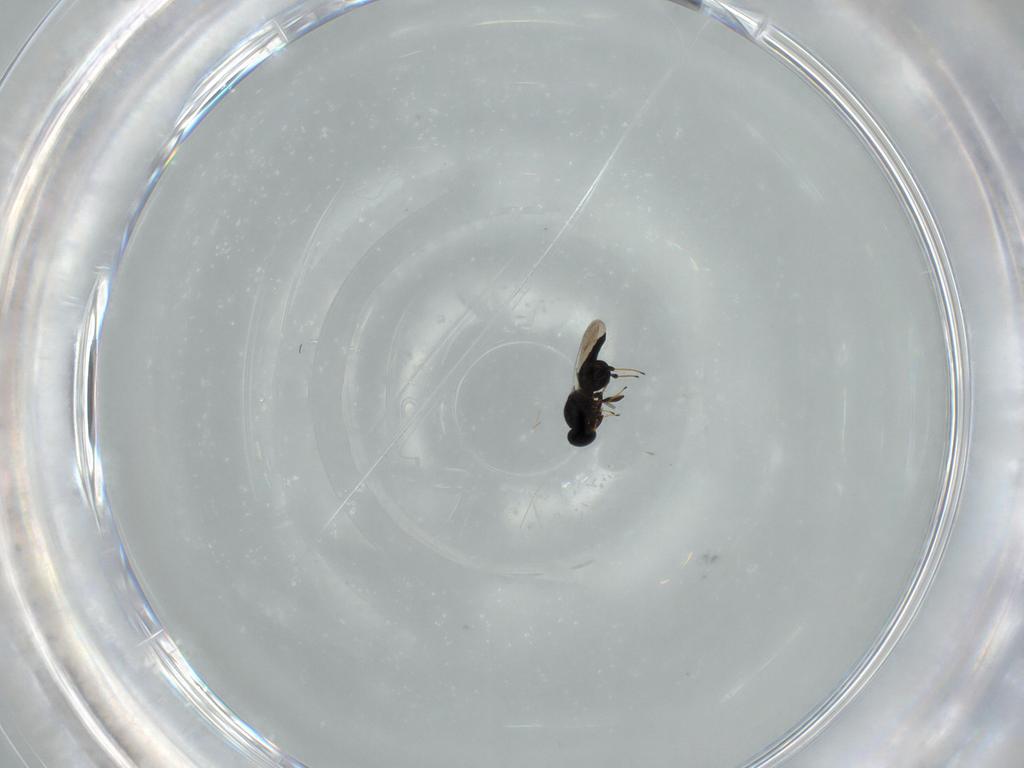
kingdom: Animalia
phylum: Arthropoda
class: Insecta
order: Hymenoptera
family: Platygastridae
